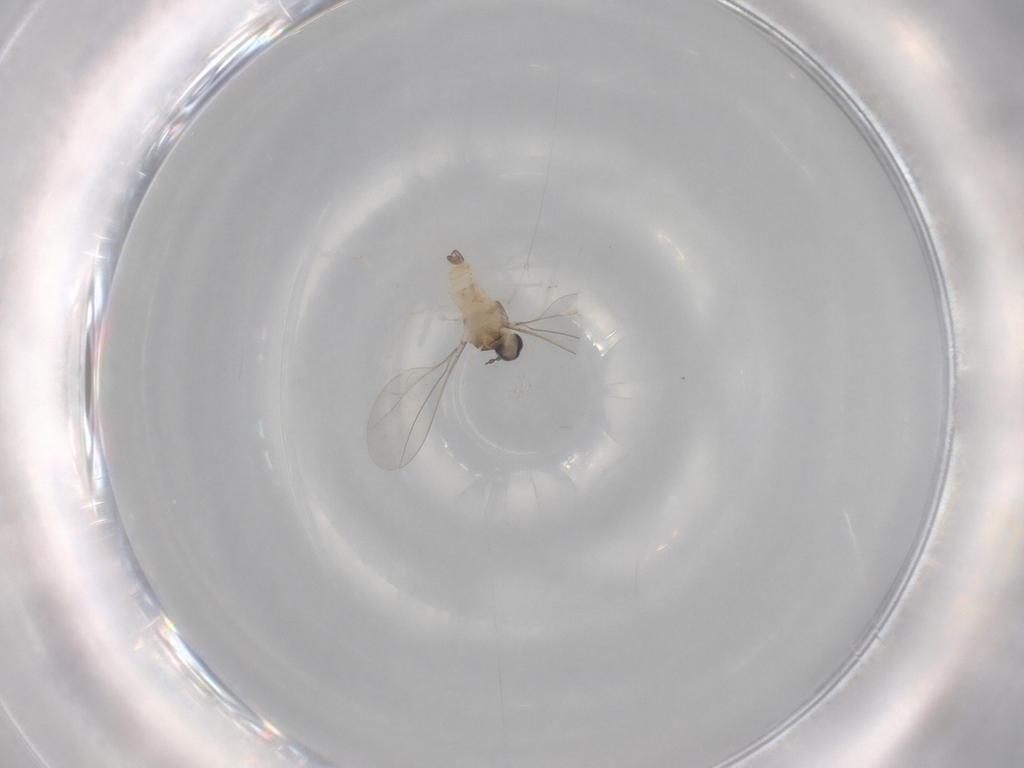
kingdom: Animalia
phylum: Arthropoda
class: Insecta
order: Diptera
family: Cecidomyiidae
